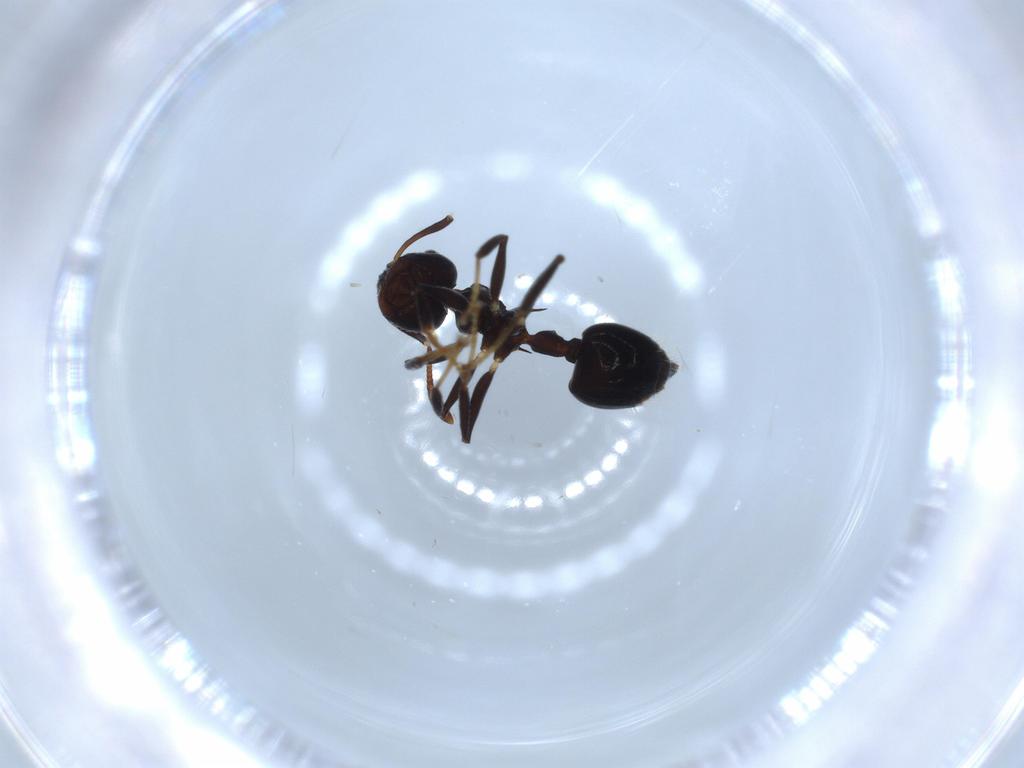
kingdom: Animalia
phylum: Arthropoda
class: Insecta
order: Hymenoptera
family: Formicidae
